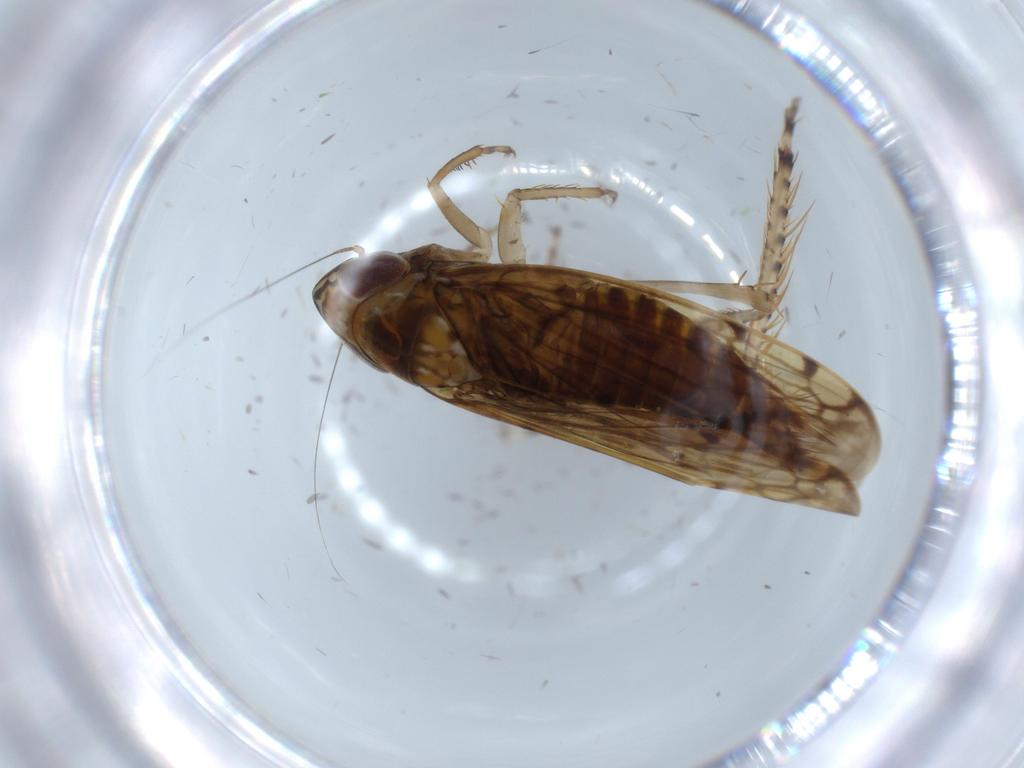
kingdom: Animalia
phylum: Arthropoda
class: Insecta
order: Hemiptera
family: Cicadellidae
